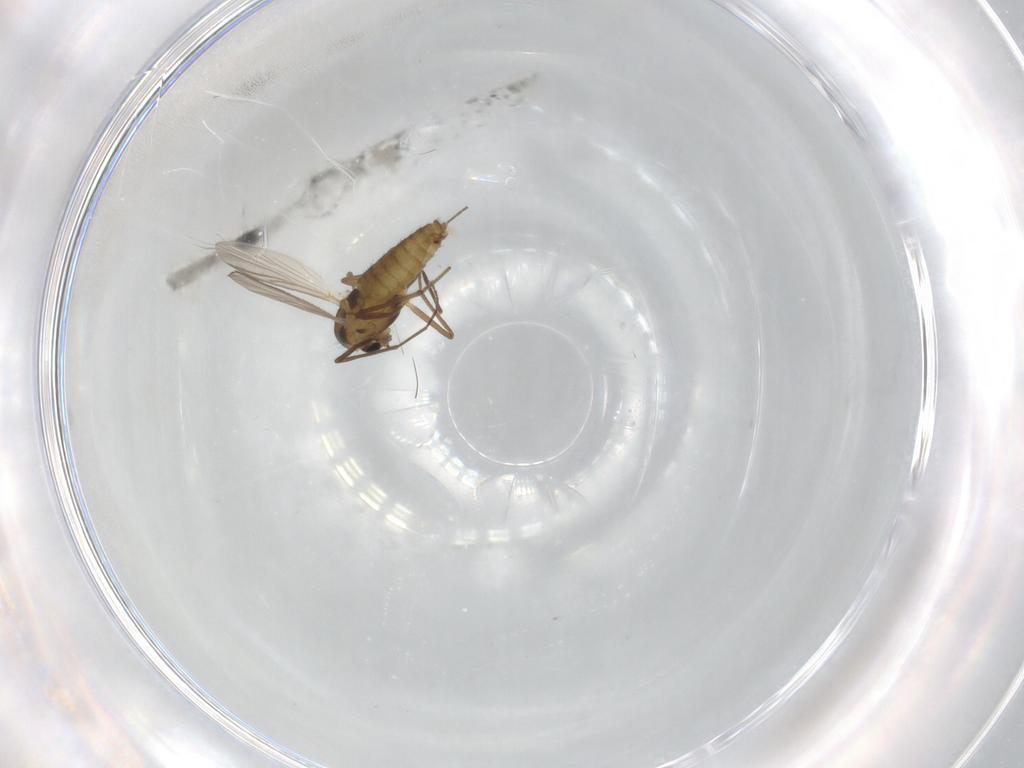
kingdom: Animalia
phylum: Arthropoda
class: Insecta
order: Diptera
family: Chironomidae
